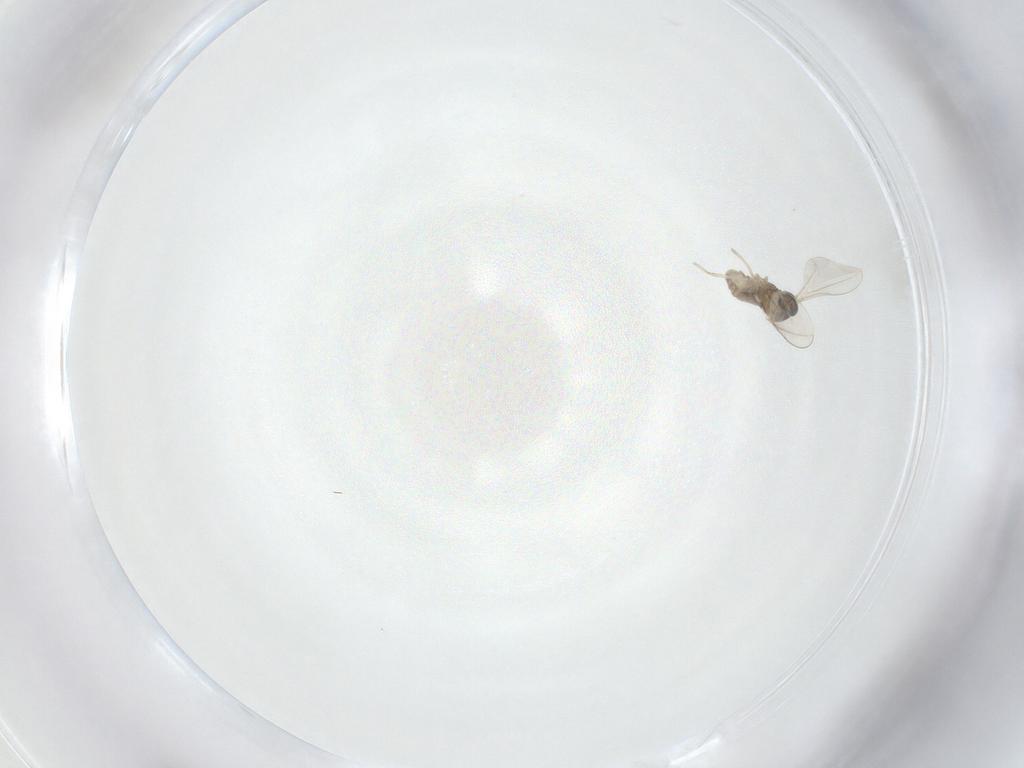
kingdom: Animalia
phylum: Arthropoda
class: Insecta
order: Diptera
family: Cecidomyiidae
